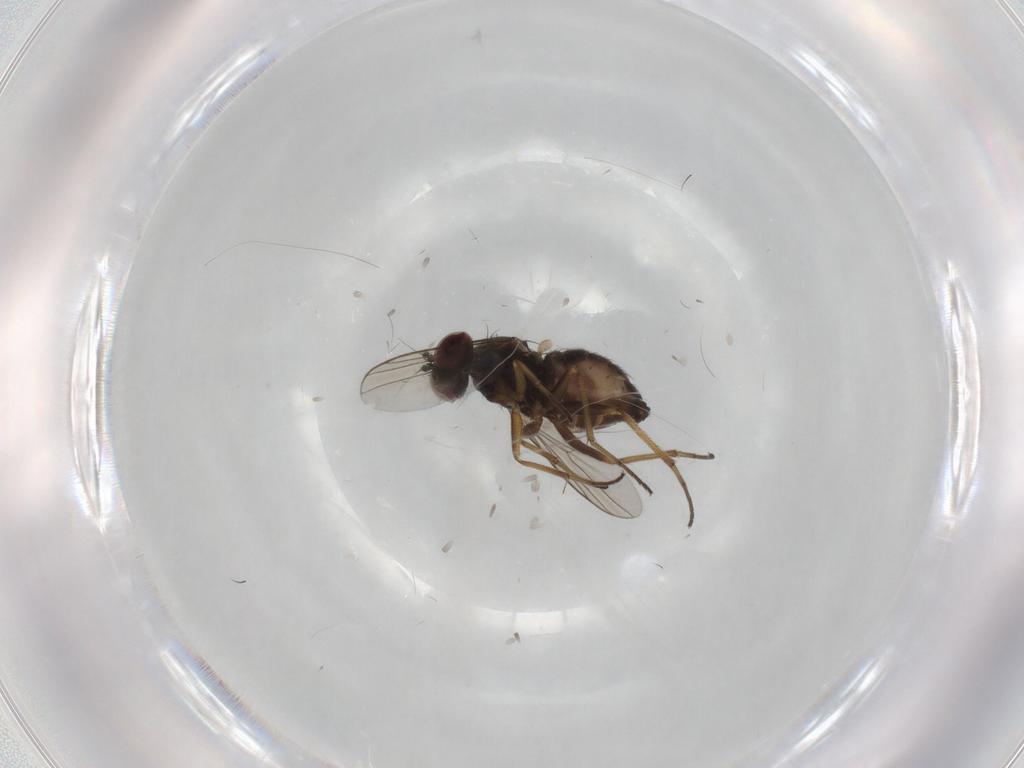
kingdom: Animalia
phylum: Arthropoda
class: Insecta
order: Diptera
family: Dolichopodidae
